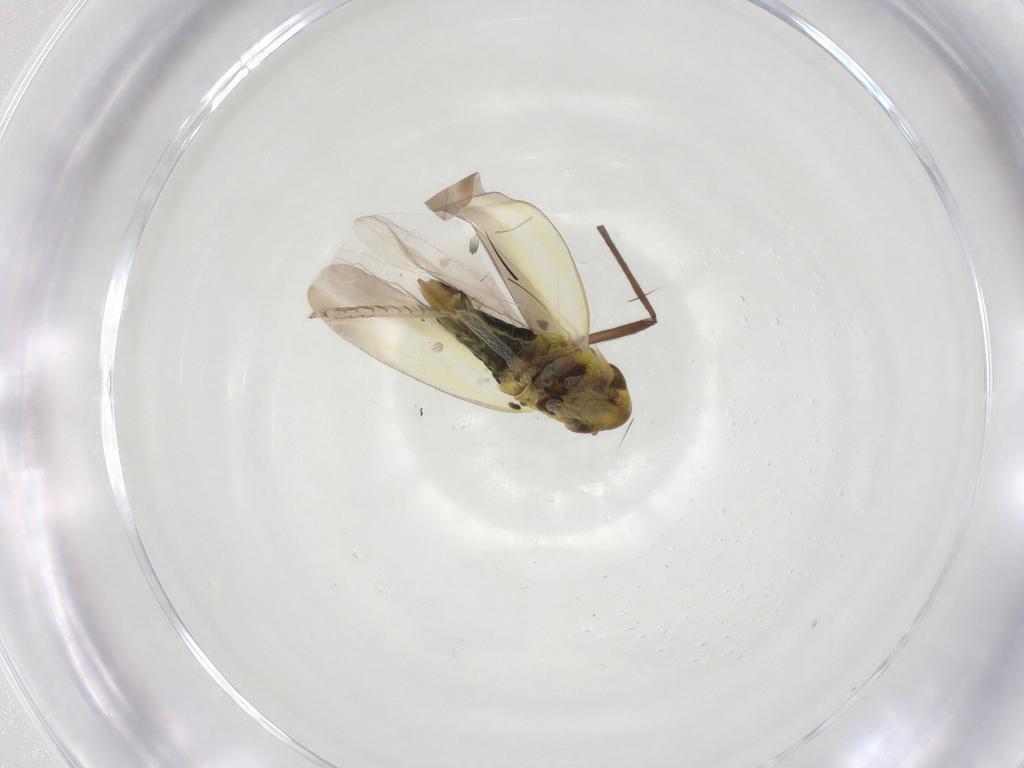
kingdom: Animalia
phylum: Arthropoda
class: Insecta
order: Hemiptera
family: Cicadellidae
